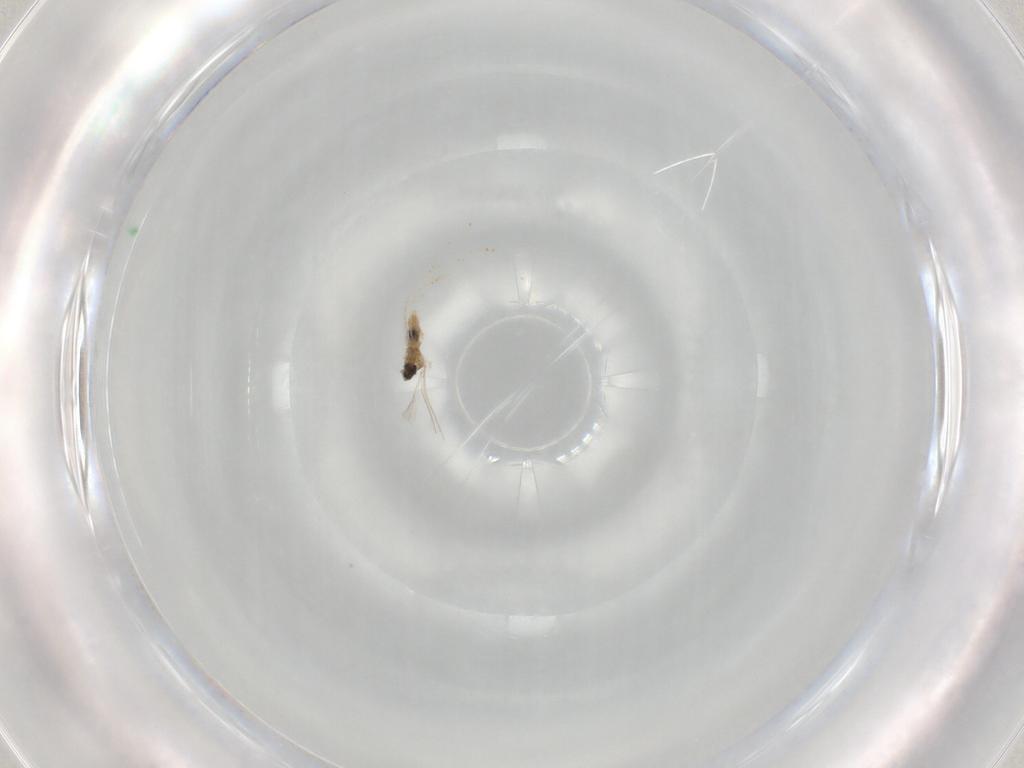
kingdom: Animalia
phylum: Arthropoda
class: Insecta
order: Diptera
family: Cecidomyiidae
